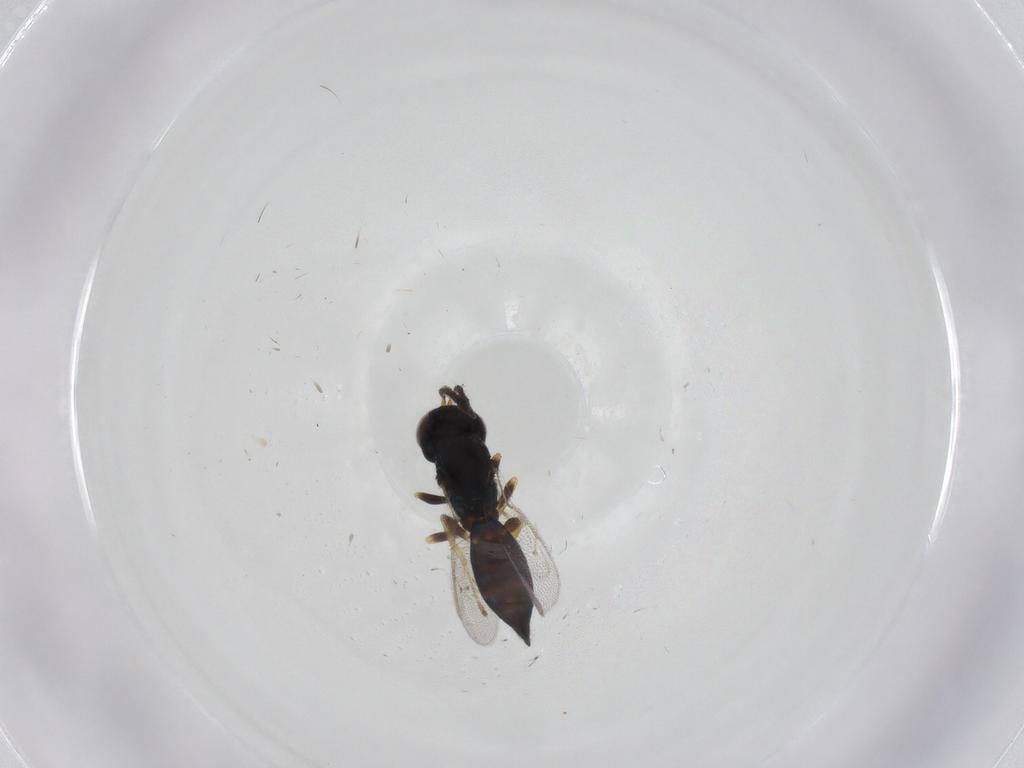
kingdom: Animalia
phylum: Arthropoda
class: Insecta
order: Hymenoptera
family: Pteromalidae
